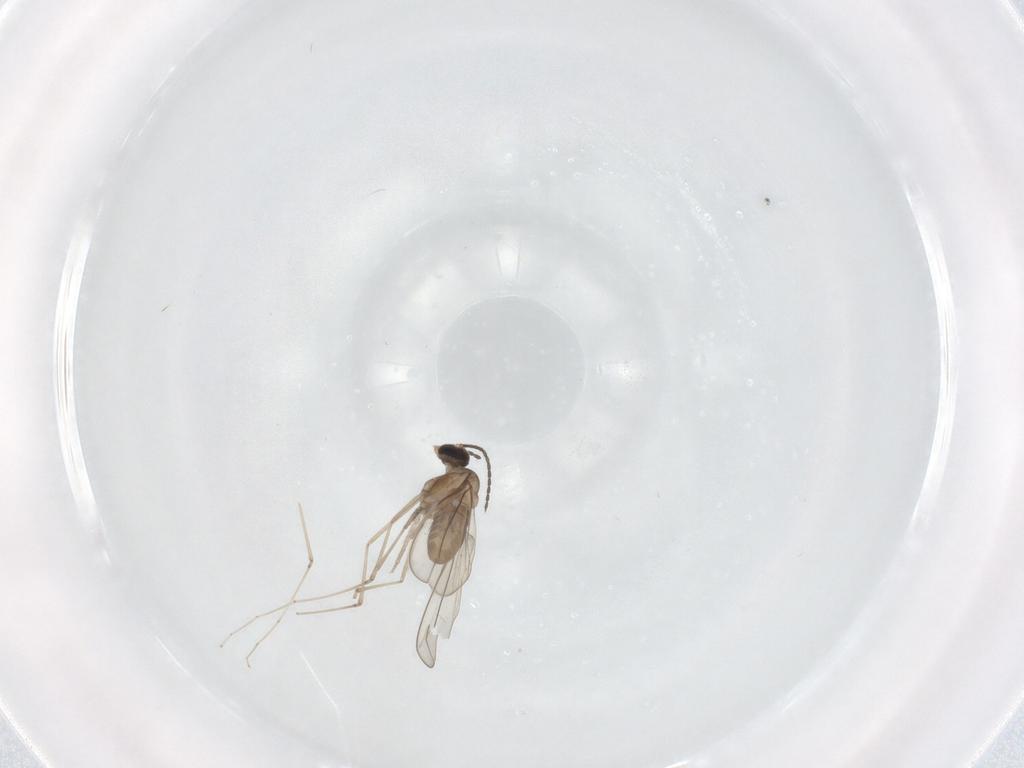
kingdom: Animalia
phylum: Arthropoda
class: Insecta
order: Diptera
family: Cecidomyiidae
